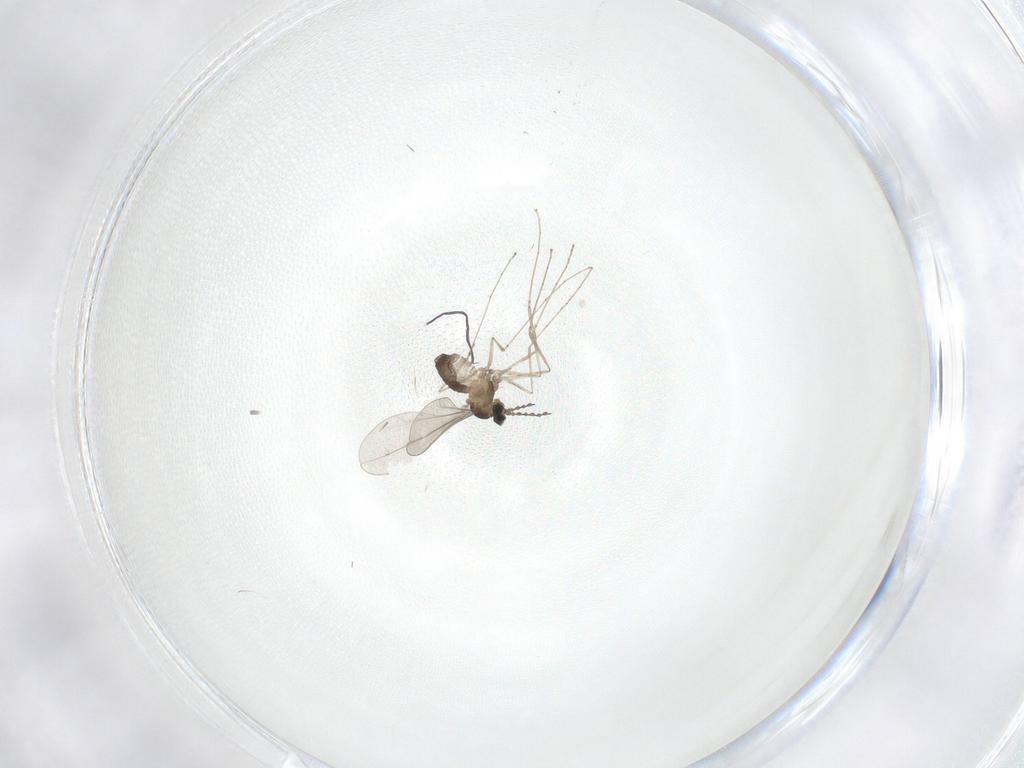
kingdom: Animalia
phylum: Arthropoda
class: Insecta
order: Diptera
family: Cecidomyiidae
